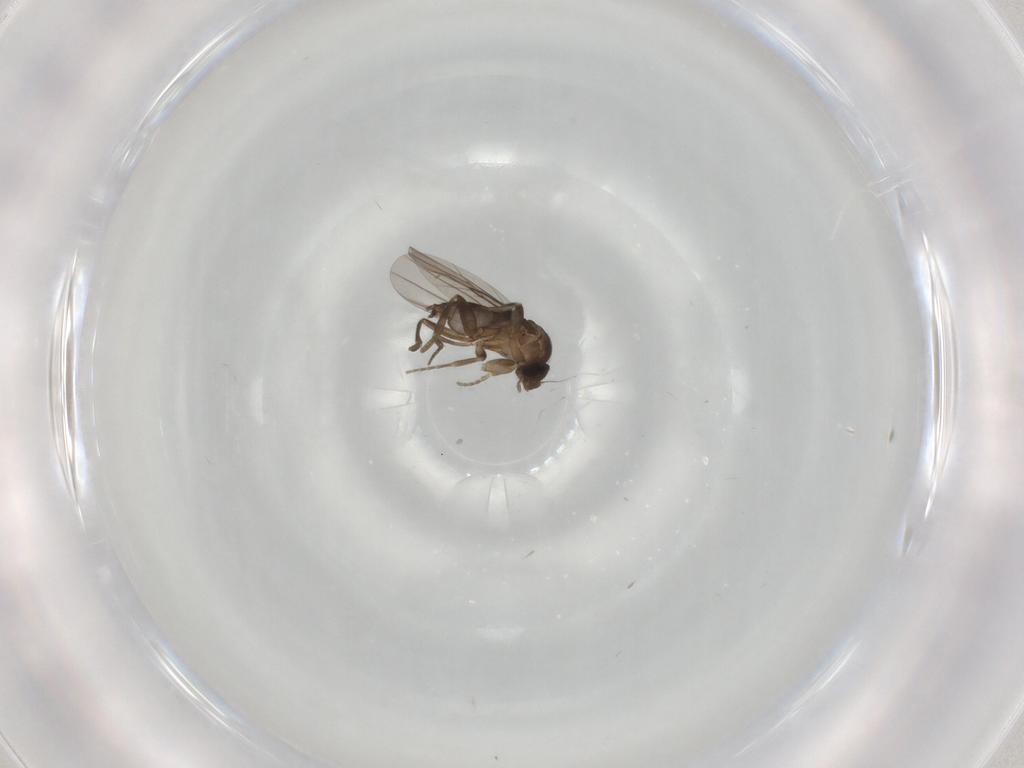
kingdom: Animalia
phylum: Arthropoda
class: Insecta
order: Diptera
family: Cecidomyiidae
